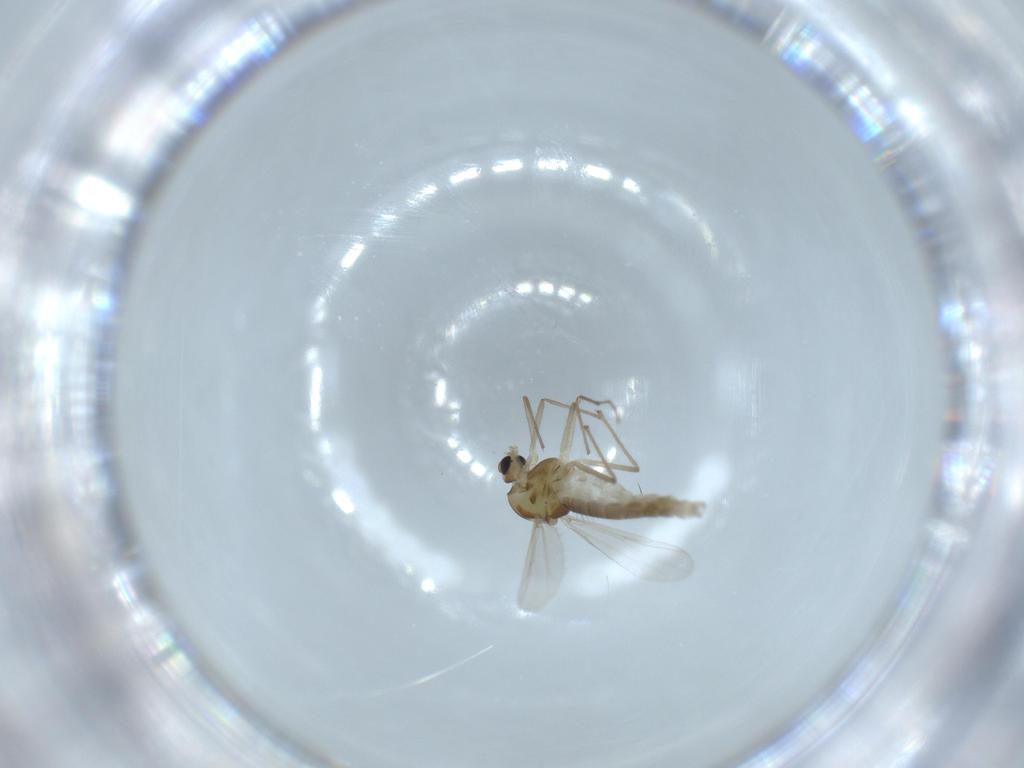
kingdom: Animalia
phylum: Arthropoda
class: Insecta
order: Diptera
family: Chironomidae
